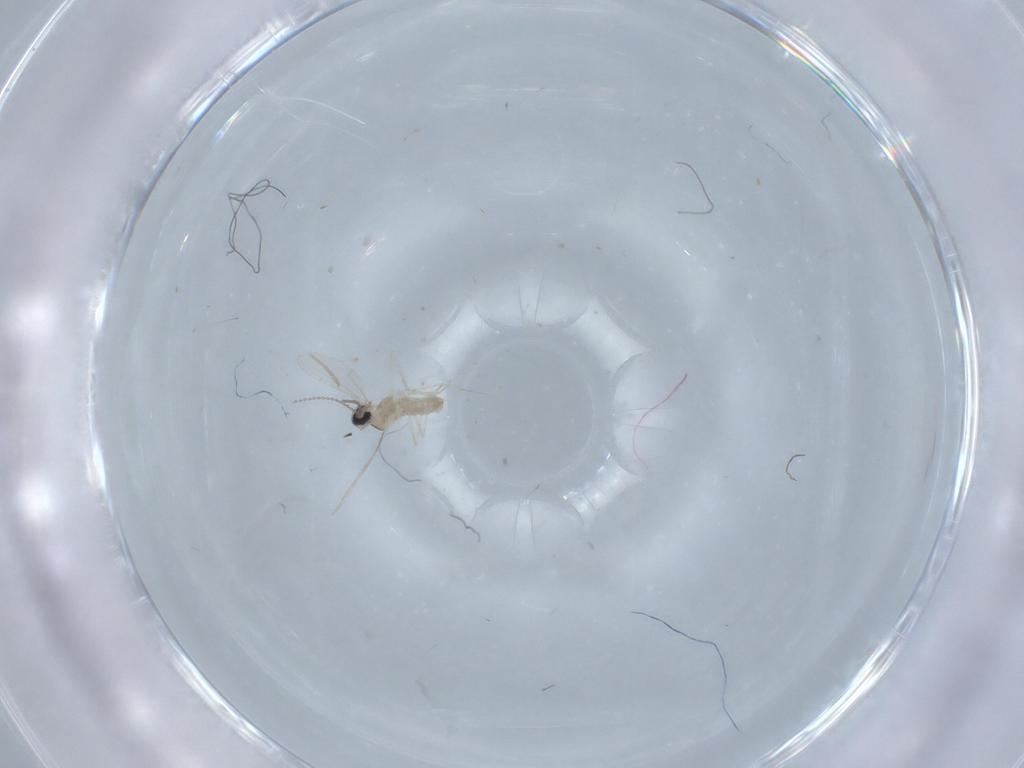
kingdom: Animalia
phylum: Arthropoda
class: Insecta
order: Diptera
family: Cecidomyiidae
